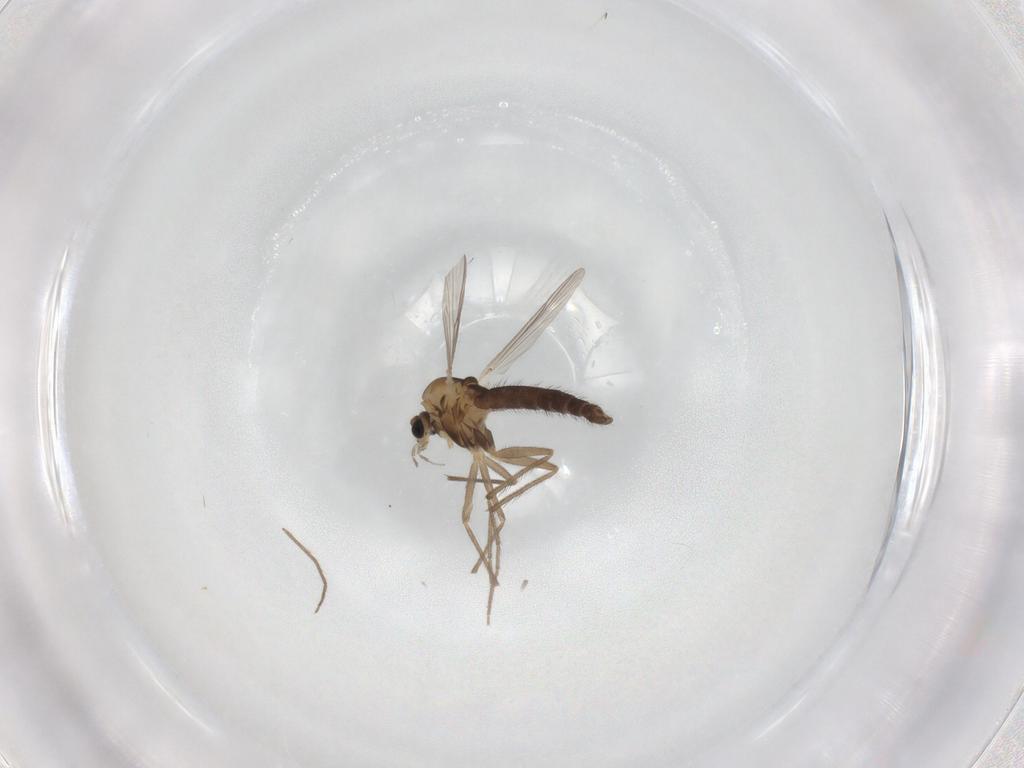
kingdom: Animalia
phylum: Arthropoda
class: Insecta
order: Diptera
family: Chironomidae
